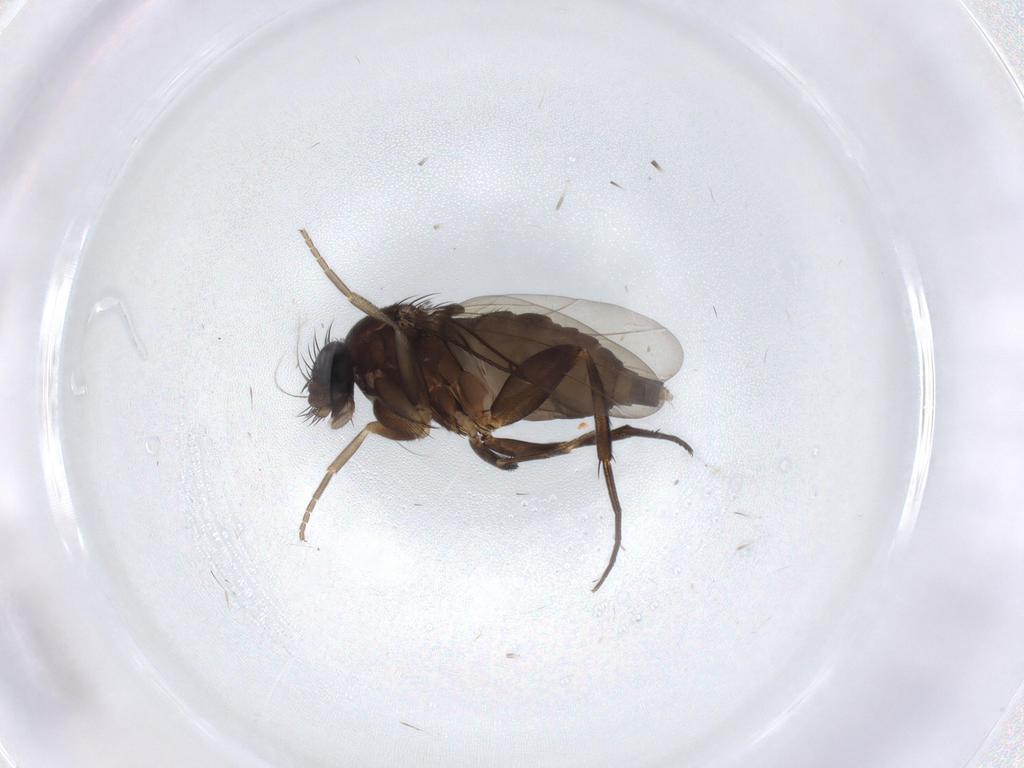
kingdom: Animalia
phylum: Arthropoda
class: Insecta
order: Diptera
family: Phoridae
